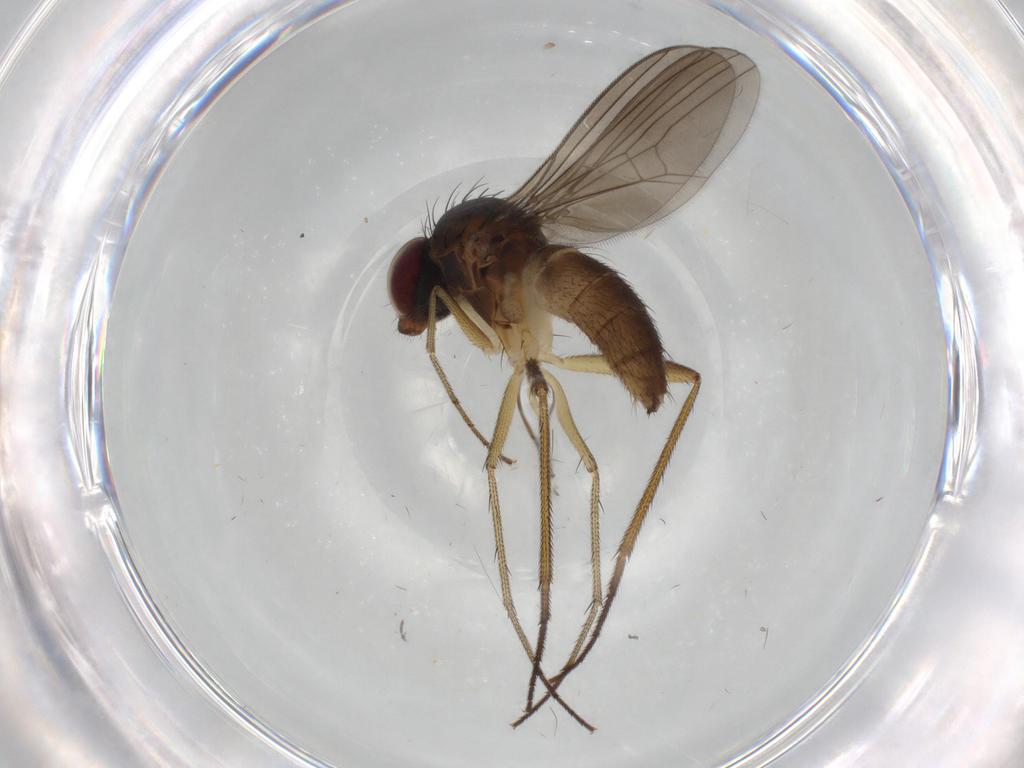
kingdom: Animalia
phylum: Arthropoda
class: Insecta
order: Diptera
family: Dolichopodidae
